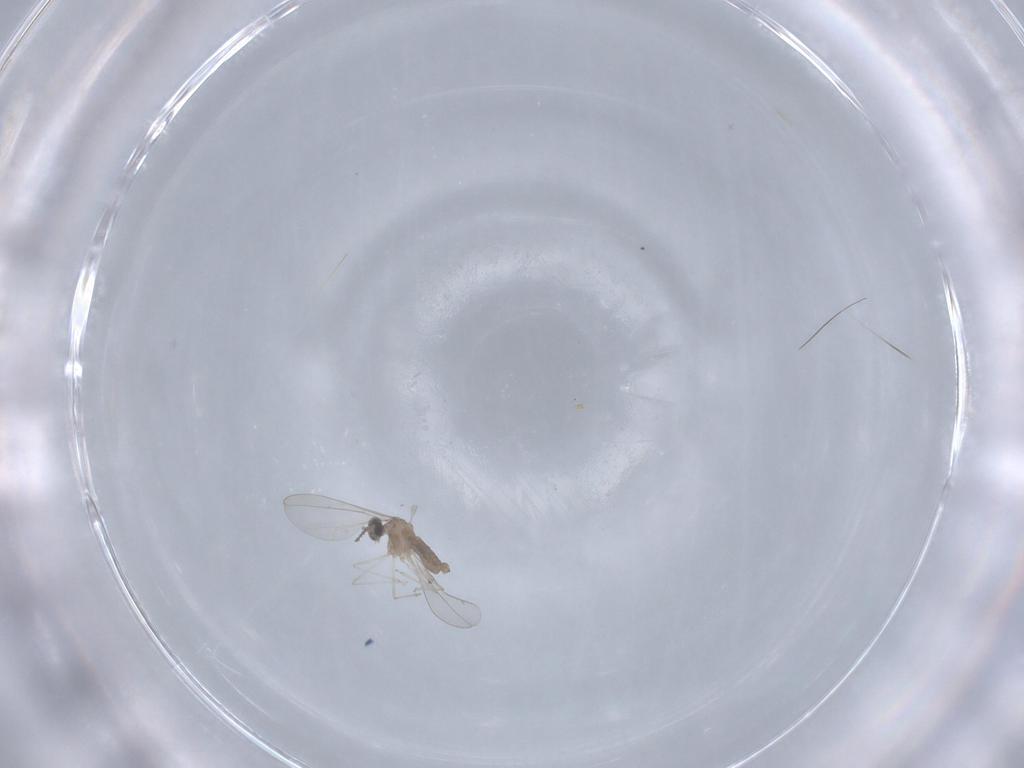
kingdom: Animalia
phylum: Arthropoda
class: Insecta
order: Diptera
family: Cecidomyiidae
